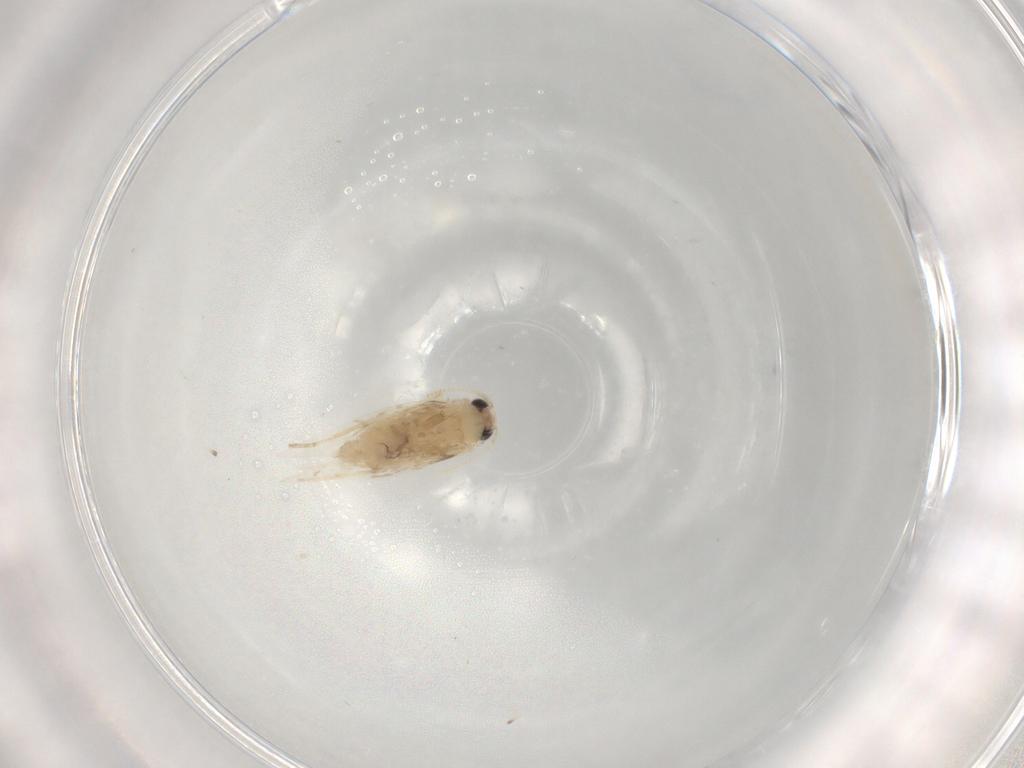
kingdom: Animalia
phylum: Arthropoda
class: Insecta
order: Lepidoptera
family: Nepticulidae
